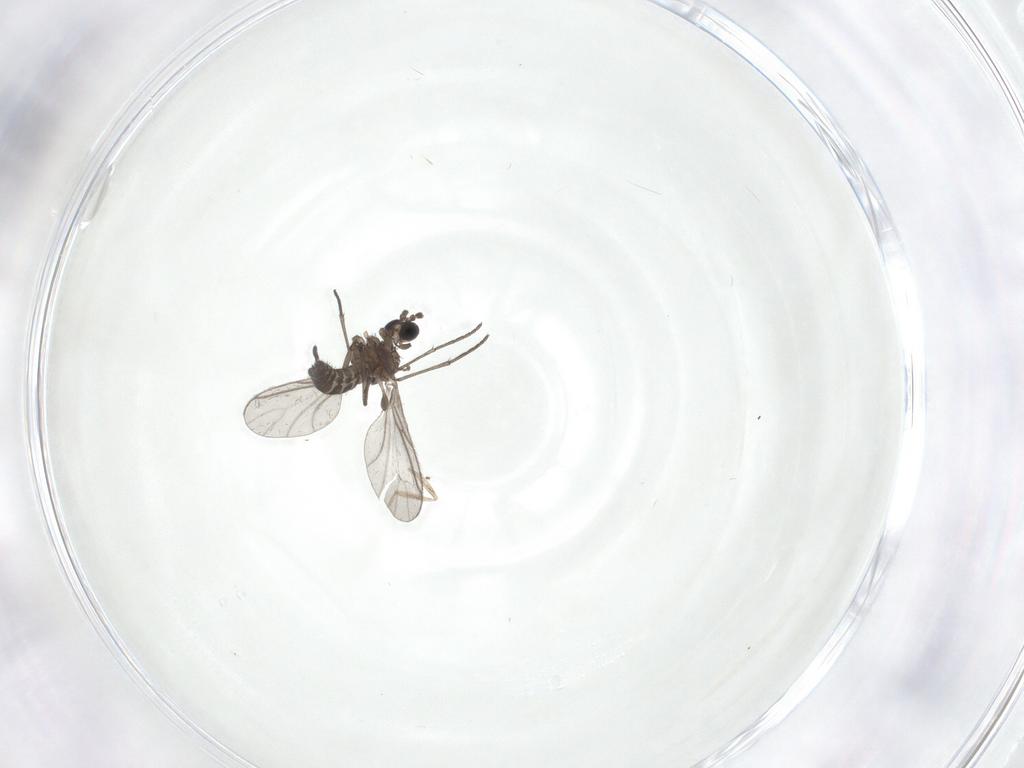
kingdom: Animalia
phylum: Arthropoda
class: Insecta
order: Diptera
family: Sciaridae
